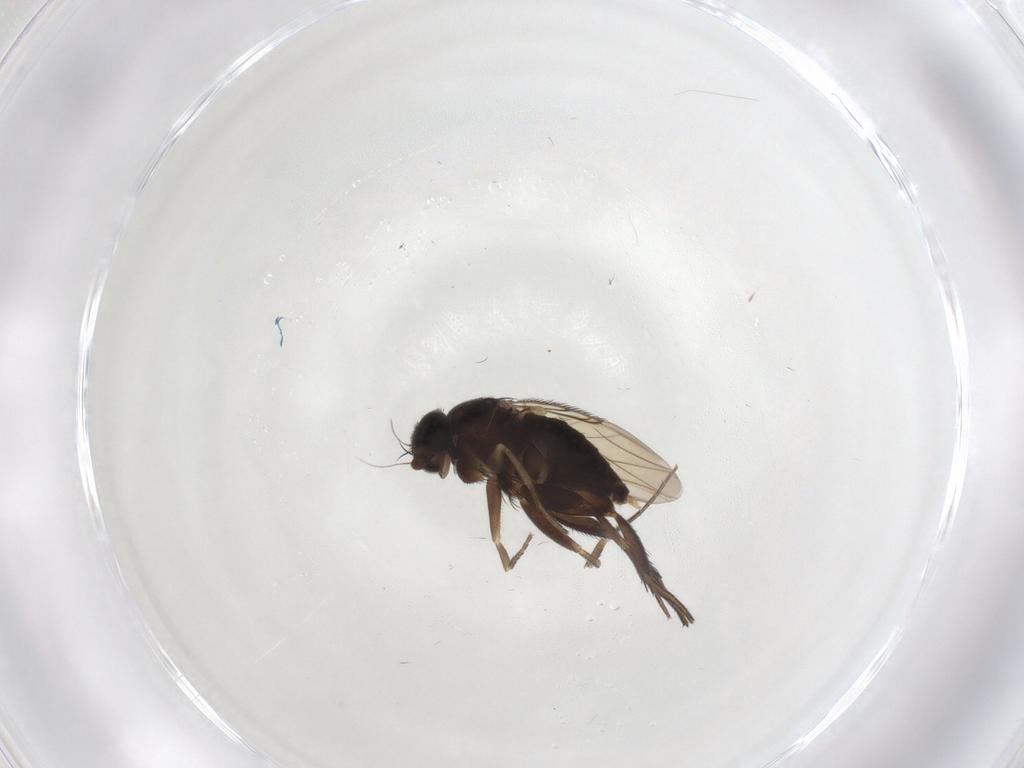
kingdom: Animalia
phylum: Arthropoda
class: Insecta
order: Diptera
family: Phoridae
